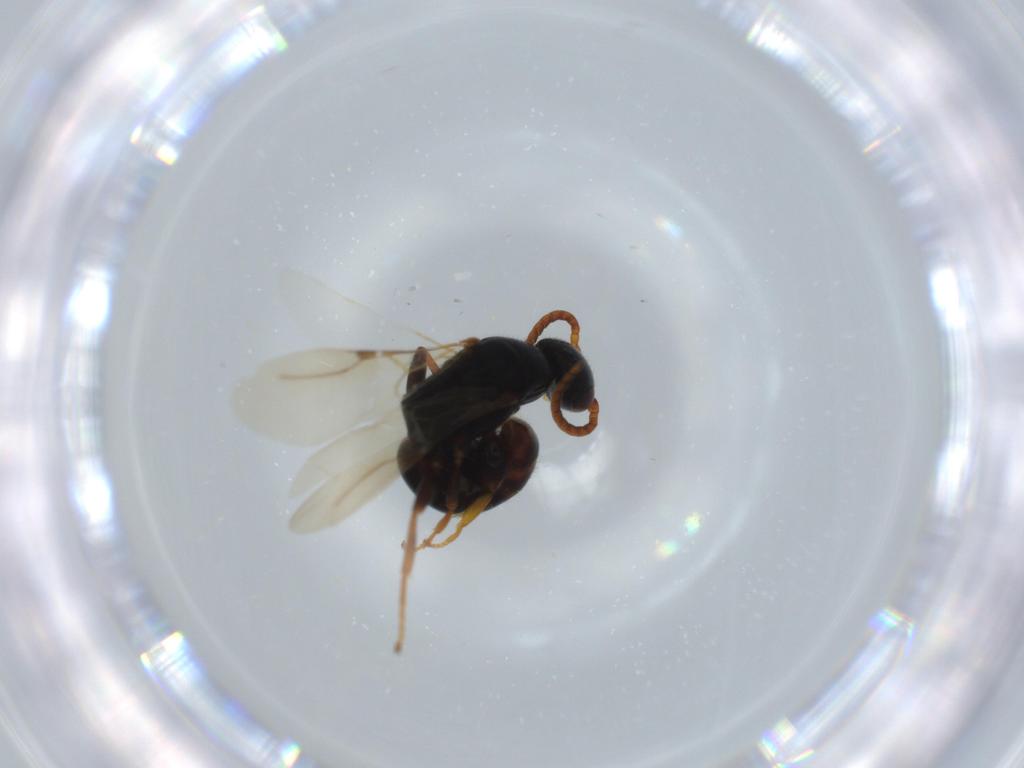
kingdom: Animalia
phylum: Arthropoda
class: Insecta
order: Hymenoptera
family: Bethylidae
